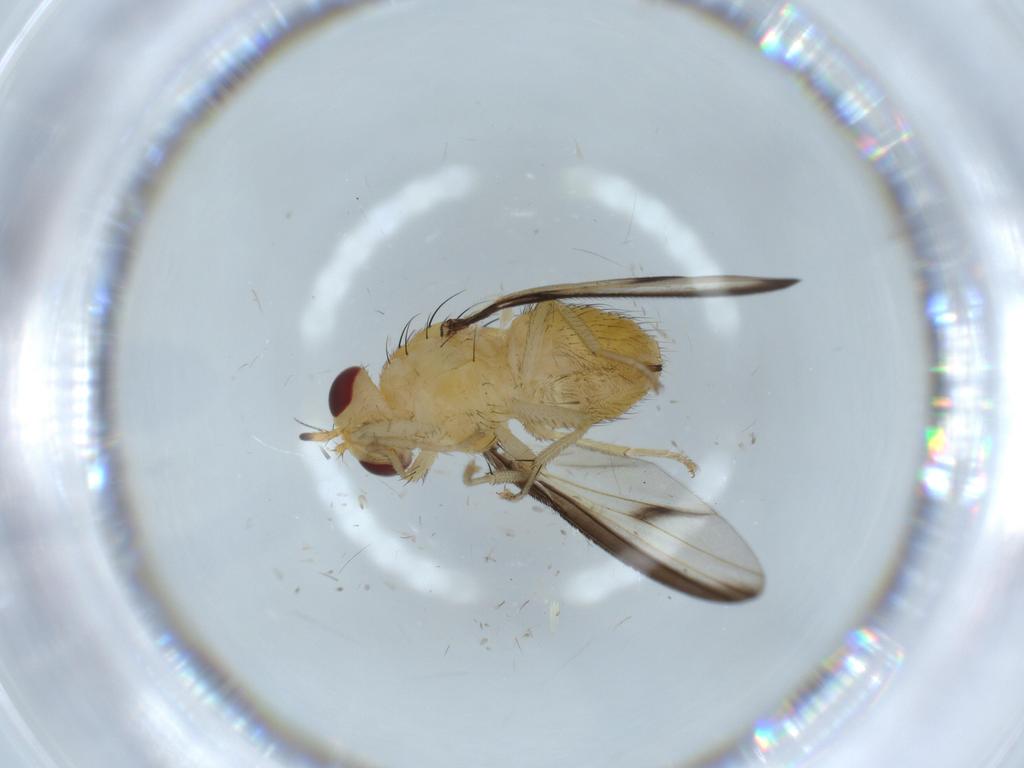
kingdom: Animalia
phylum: Arthropoda
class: Insecta
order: Diptera
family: Lauxaniidae
